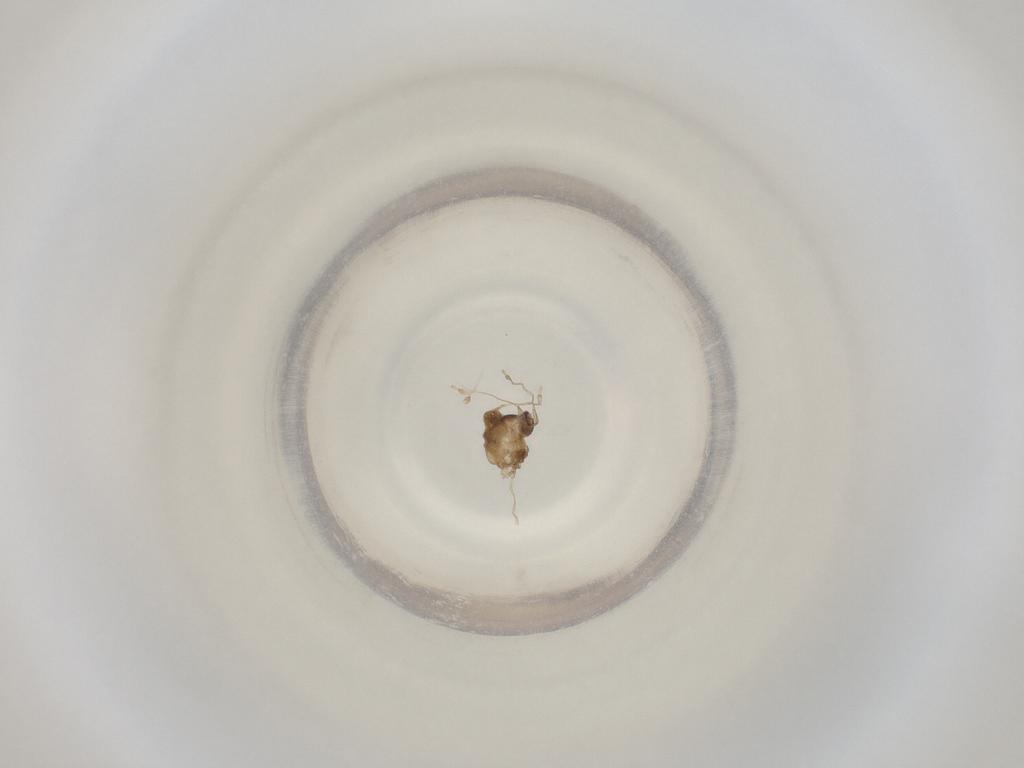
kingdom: Animalia
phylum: Arthropoda
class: Insecta
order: Diptera
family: Cecidomyiidae
